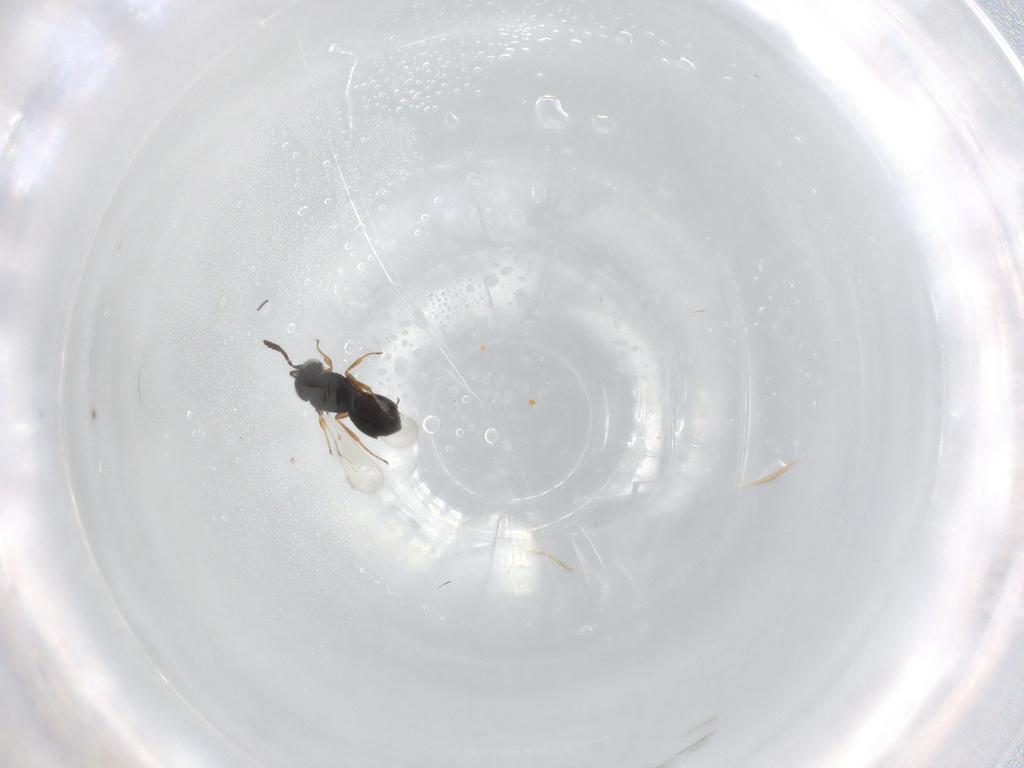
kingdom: Animalia
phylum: Arthropoda
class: Insecta
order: Hymenoptera
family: Scelionidae
